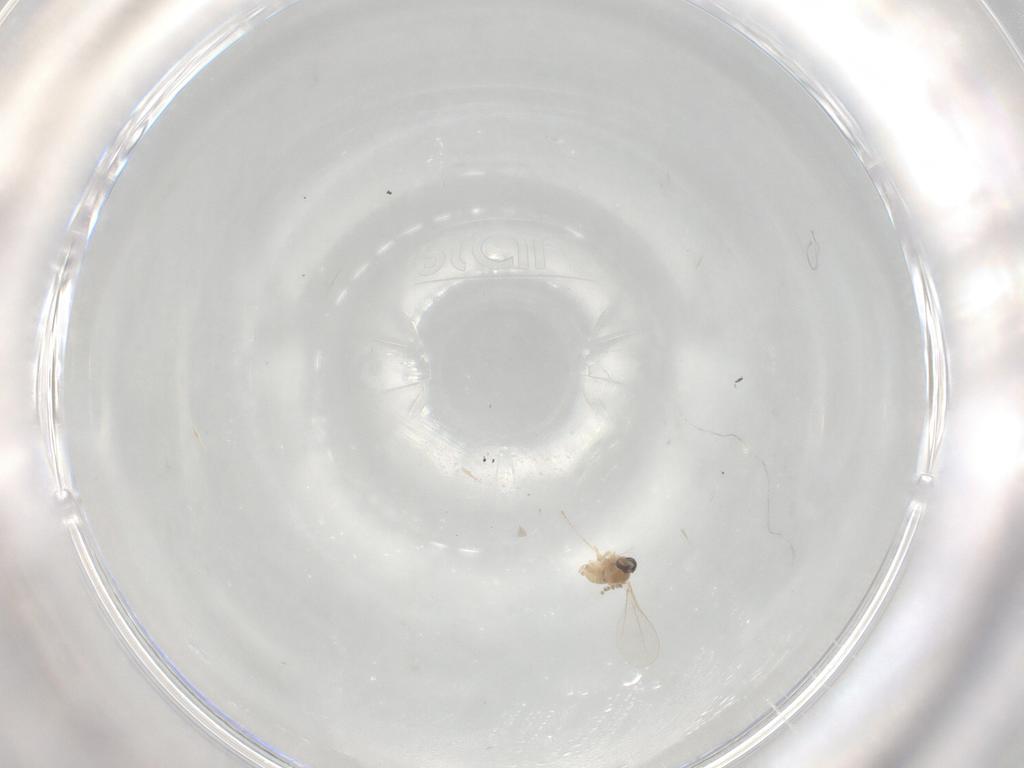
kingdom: Animalia
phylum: Arthropoda
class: Insecta
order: Diptera
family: Cecidomyiidae
